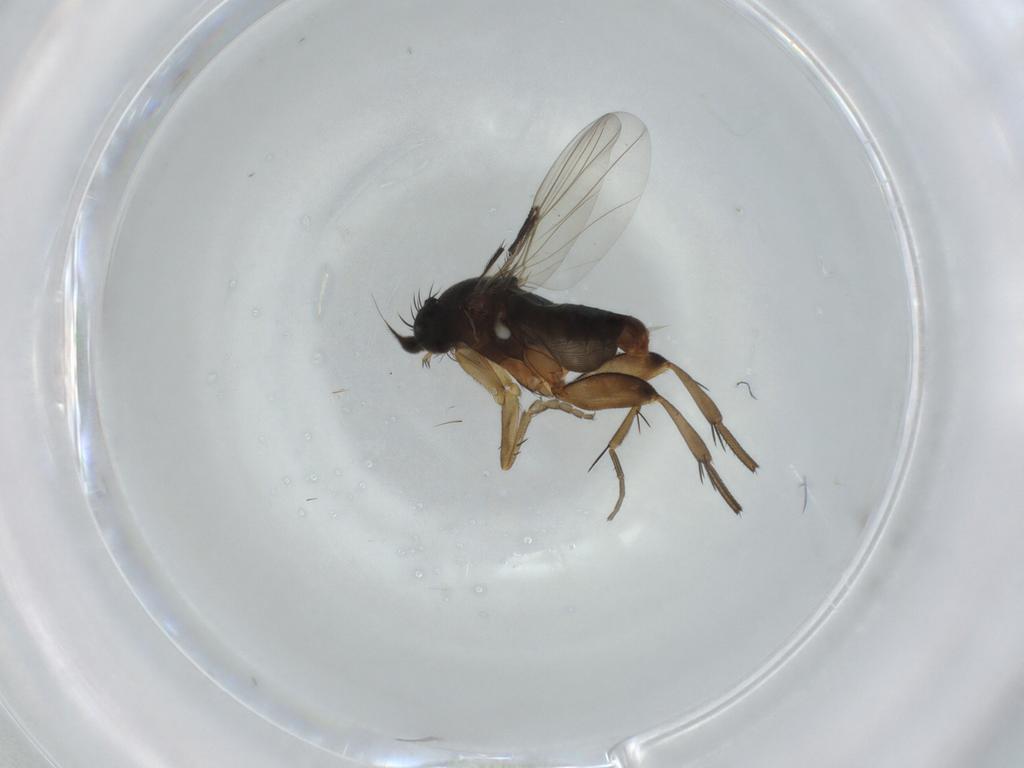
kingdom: Animalia
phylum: Arthropoda
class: Insecta
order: Diptera
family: Phoridae
